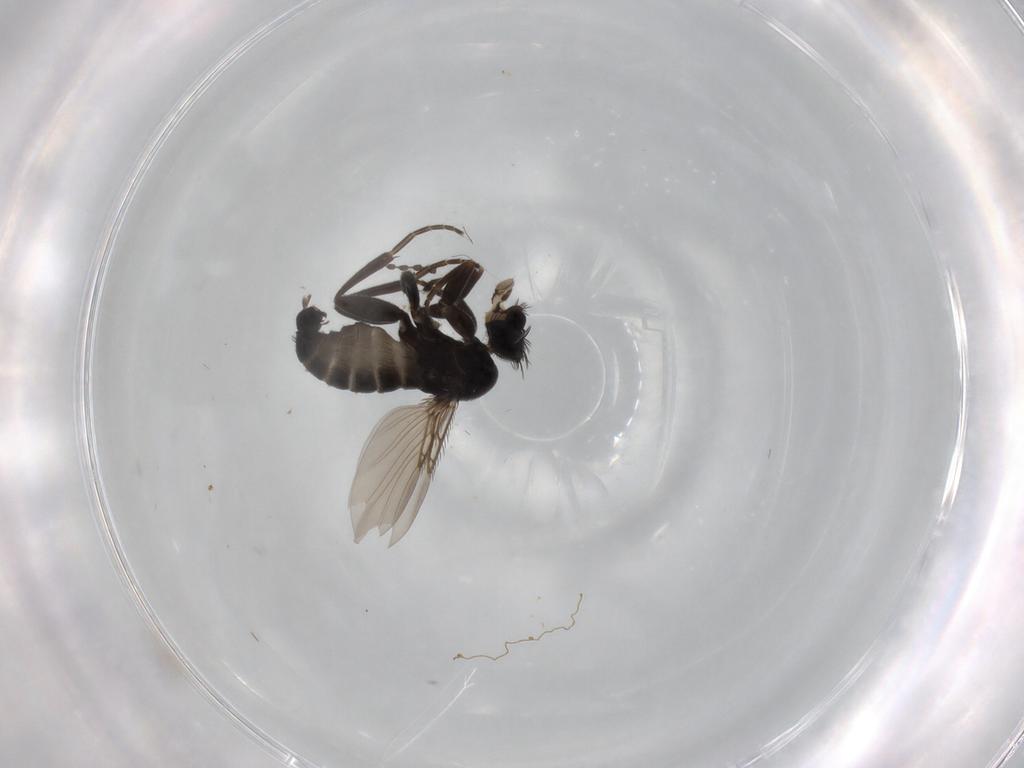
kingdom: Animalia
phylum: Arthropoda
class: Insecta
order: Diptera
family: Phoridae
